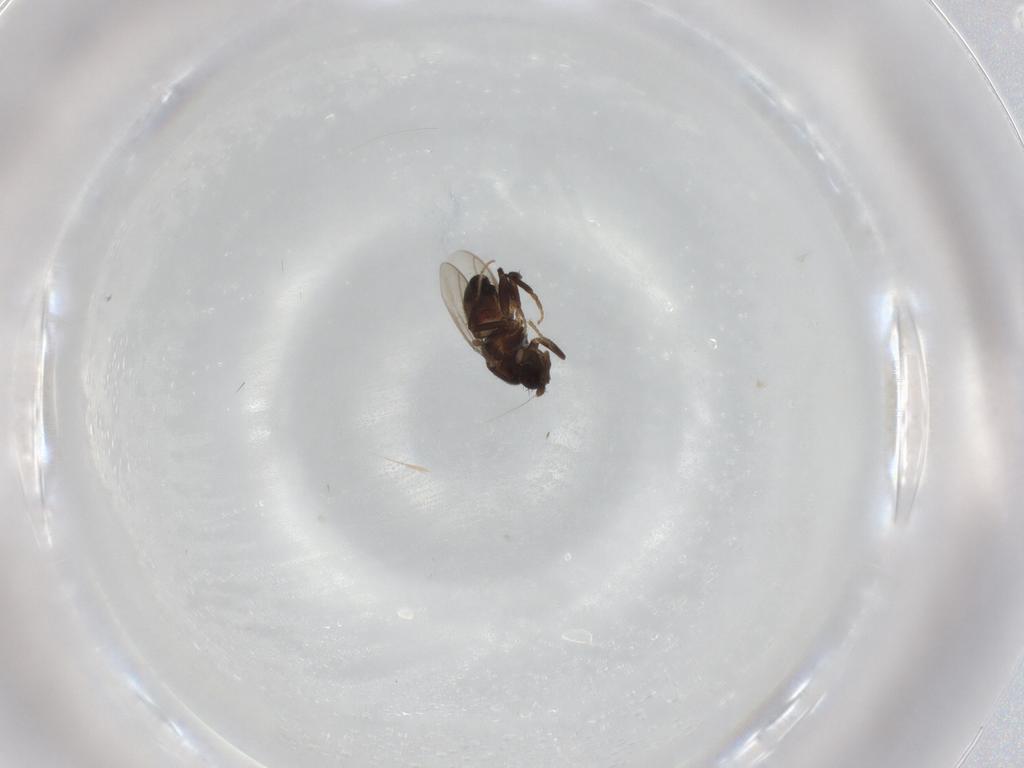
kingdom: Animalia
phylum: Arthropoda
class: Insecta
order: Diptera
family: Sphaeroceridae
